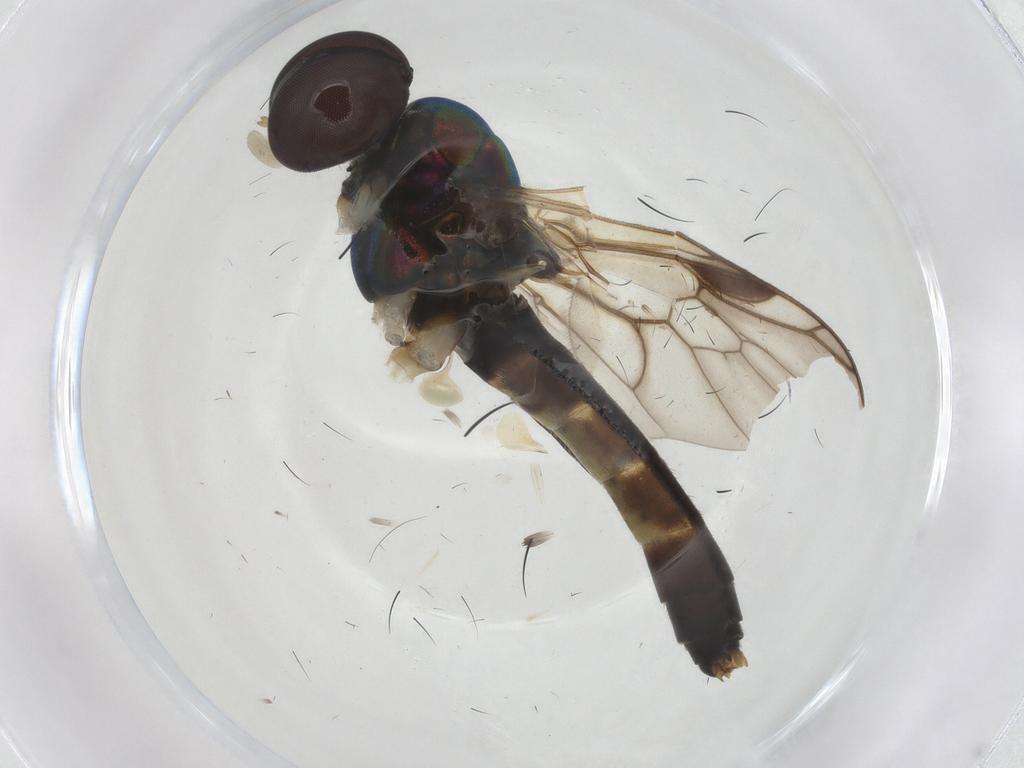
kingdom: Animalia
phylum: Arthropoda
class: Insecta
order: Diptera
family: Stratiomyidae
